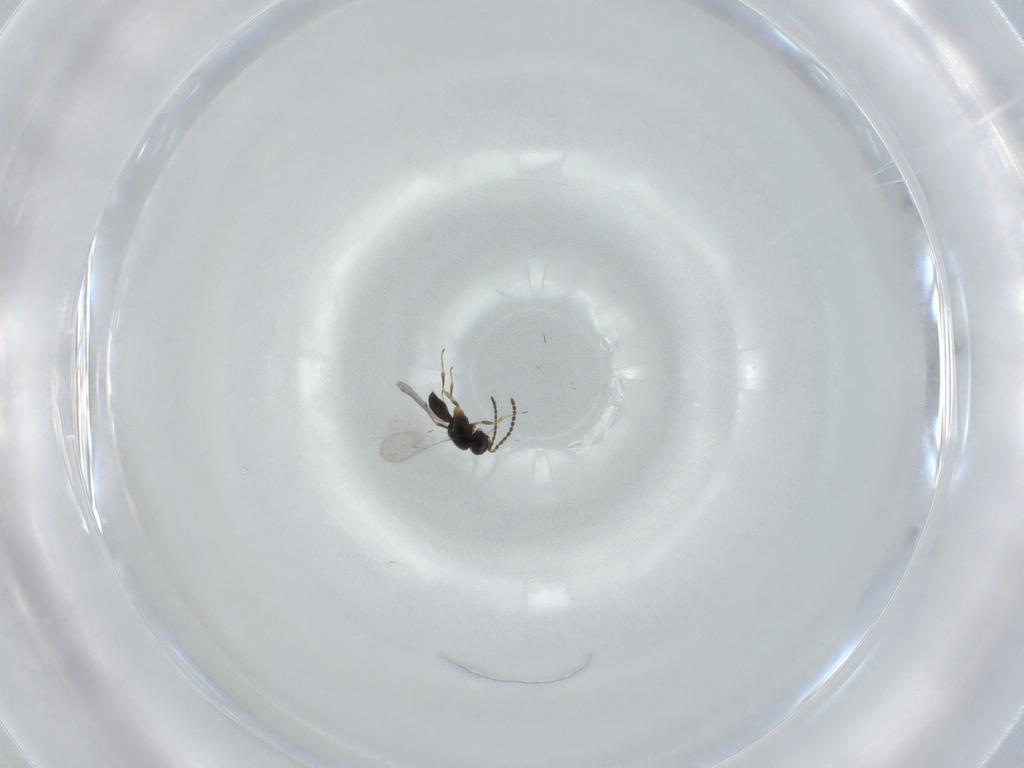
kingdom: Animalia
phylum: Arthropoda
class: Insecta
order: Hymenoptera
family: Scelionidae
